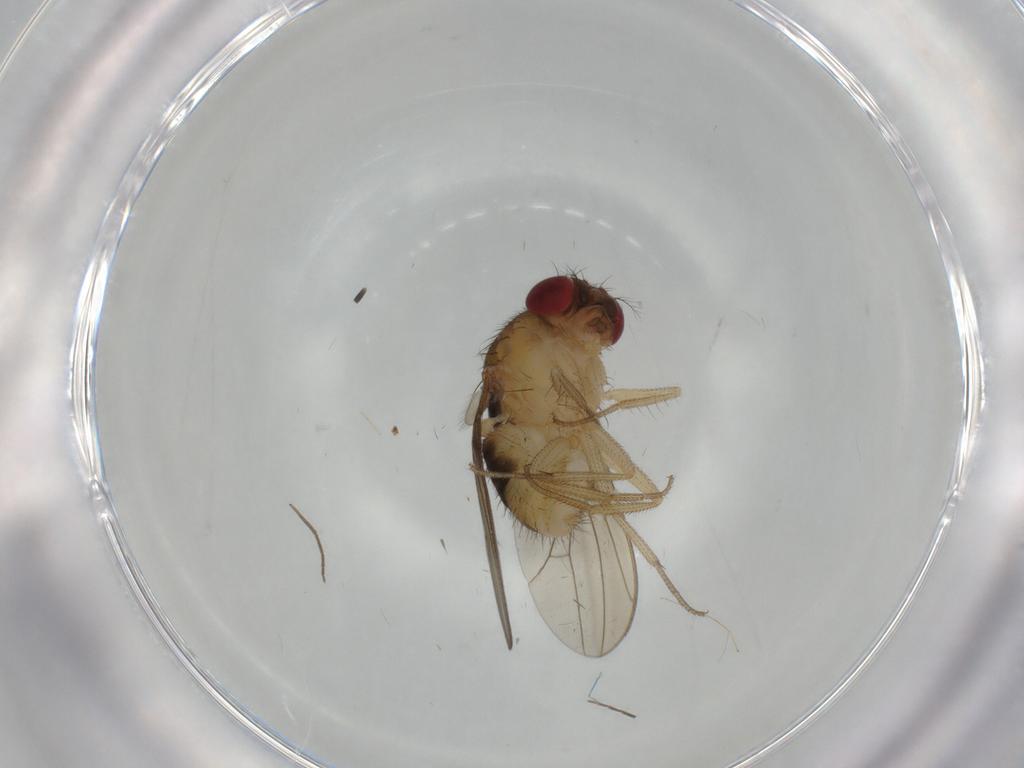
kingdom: Animalia
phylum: Arthropoda
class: Insecta
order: Diptera
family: Drosophilidae
